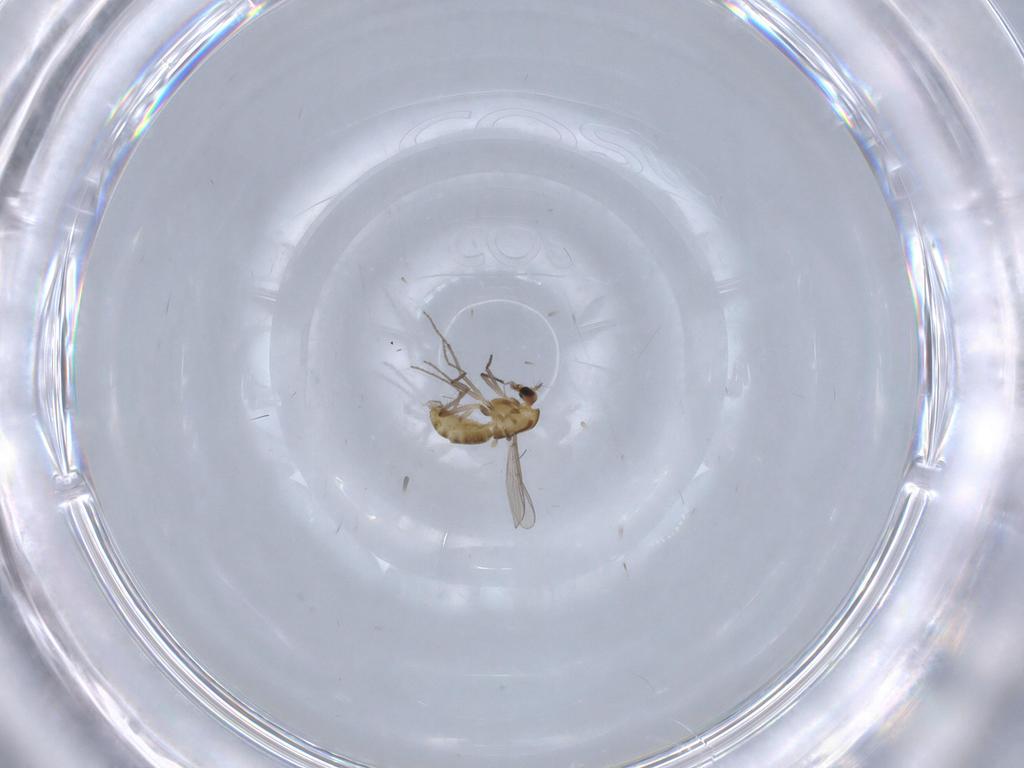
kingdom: Animalia
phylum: Arthropoda
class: Insecta
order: Diptera
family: Chironomidae
